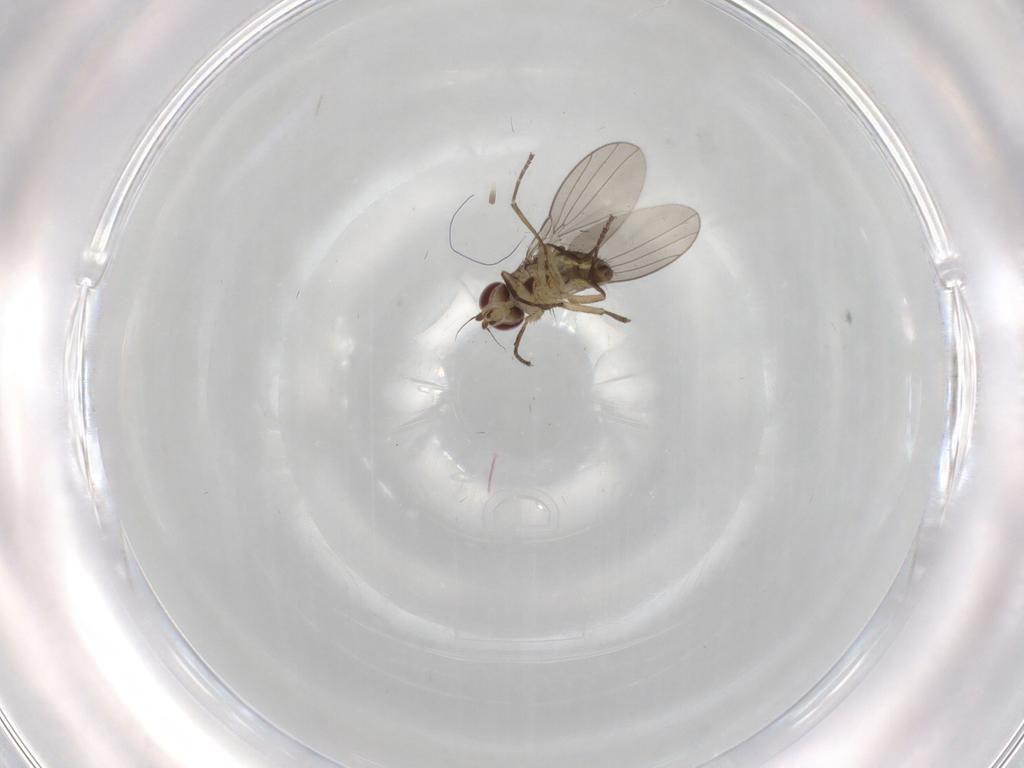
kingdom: Animalia
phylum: Arthropoda
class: Insecta
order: Diptera
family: Agromyzidae
